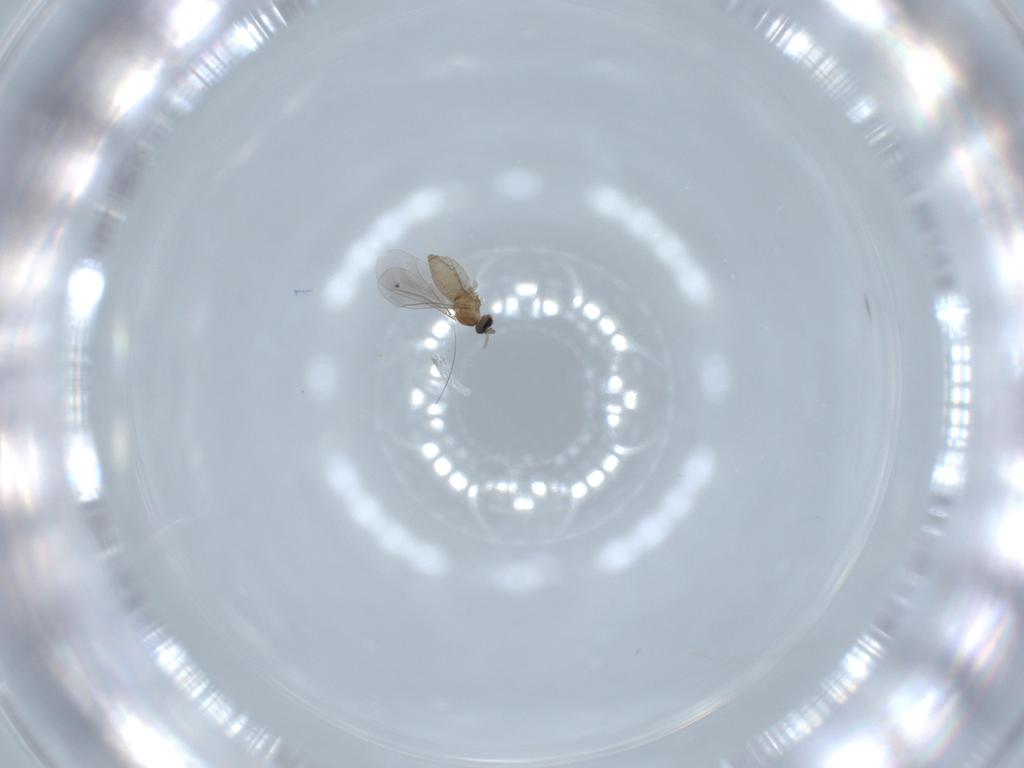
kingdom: Animalia
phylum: Arthropoda
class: Insecta
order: Diptera
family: Cecidomyiidae
